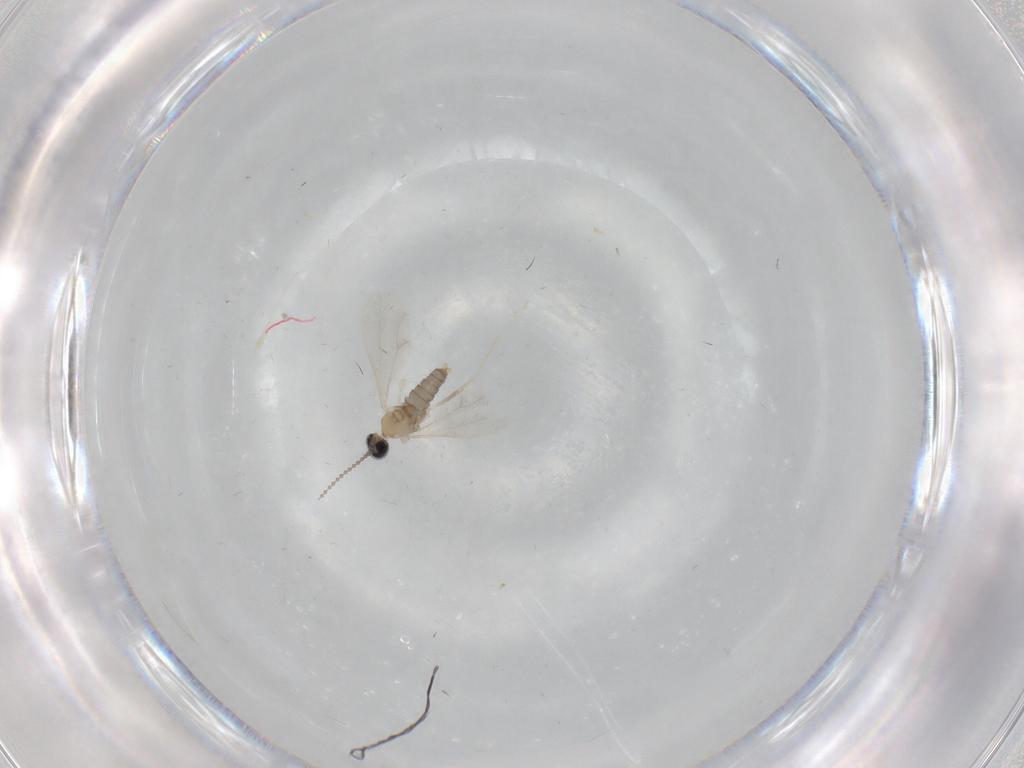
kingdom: Animalia
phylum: Arthropoda
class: Insecta
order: Diptera
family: Cecidomyiidae
